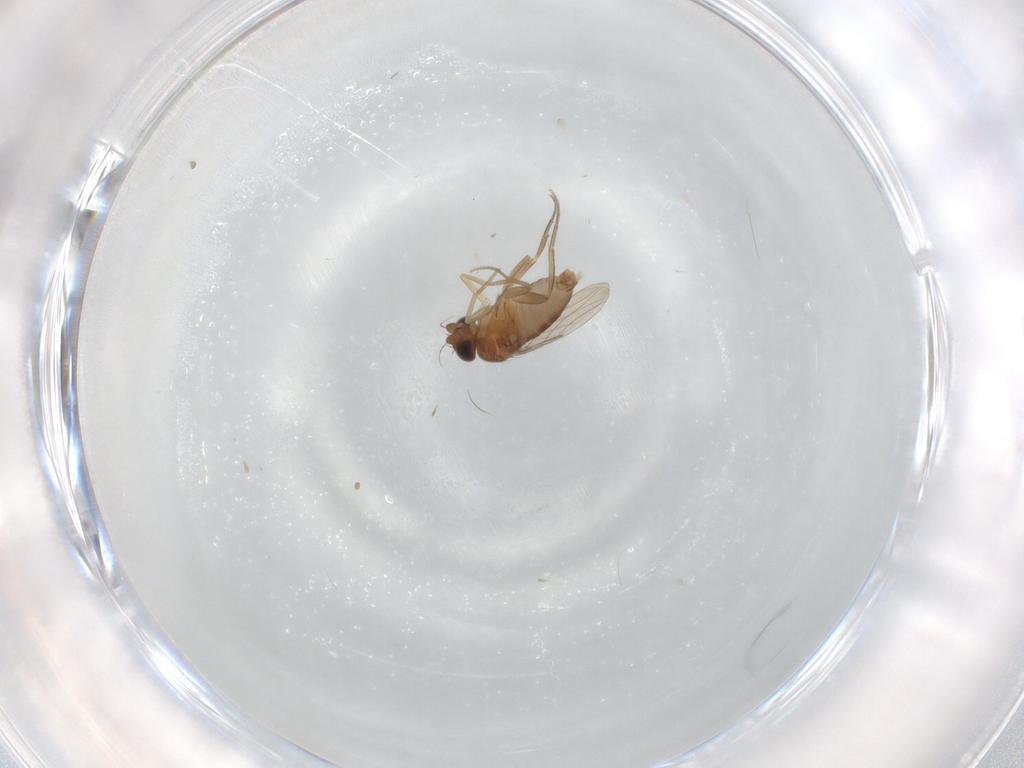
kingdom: Animalia
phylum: Arthropoda
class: Insecta
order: Diptera
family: Phoridae
